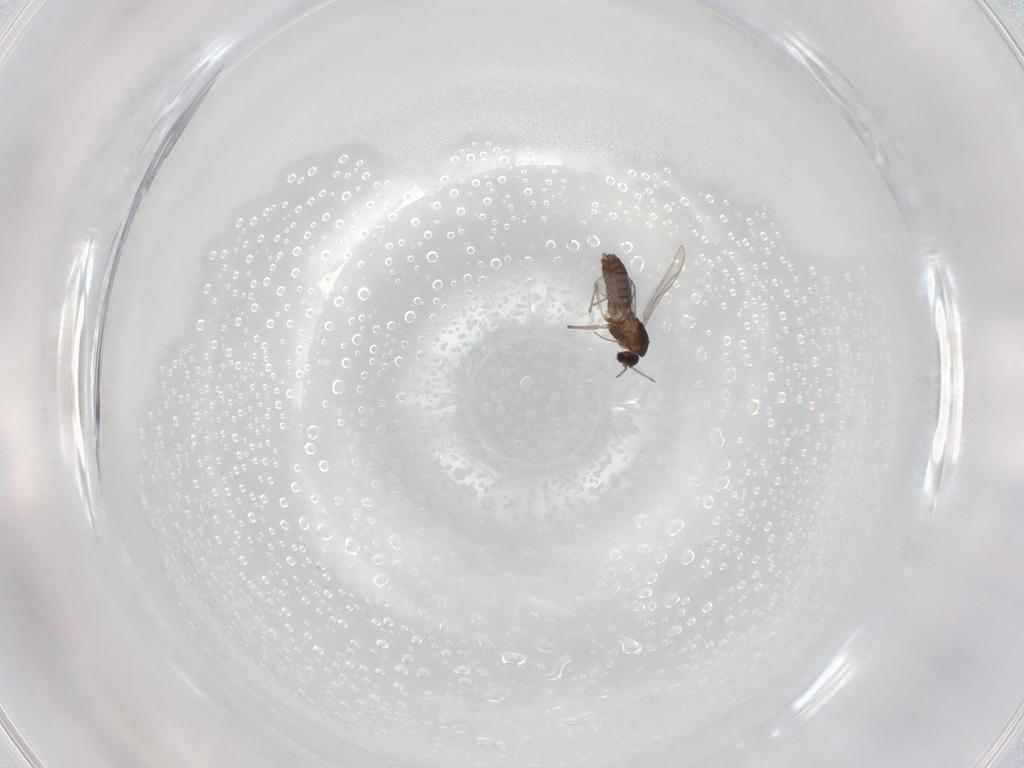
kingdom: Animalia
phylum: Arthropoda
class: Insecta
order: Diptera
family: Chironomidae
